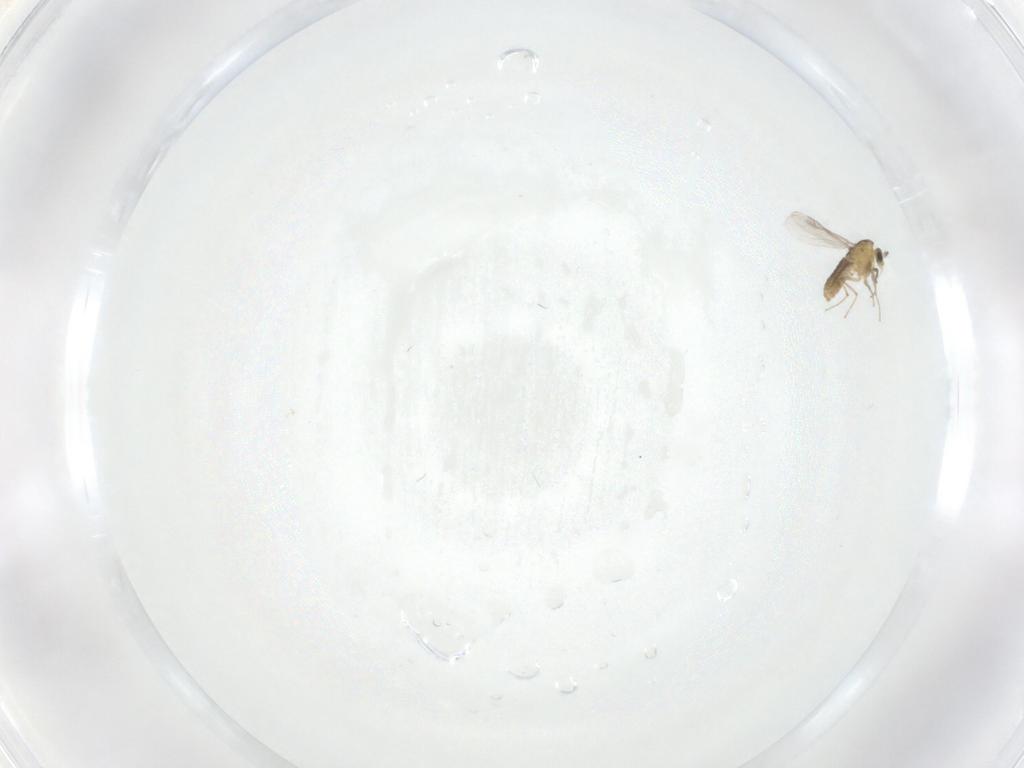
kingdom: Animalia
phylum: Arthropoda
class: Insecta
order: Diptera
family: Chironomidae
